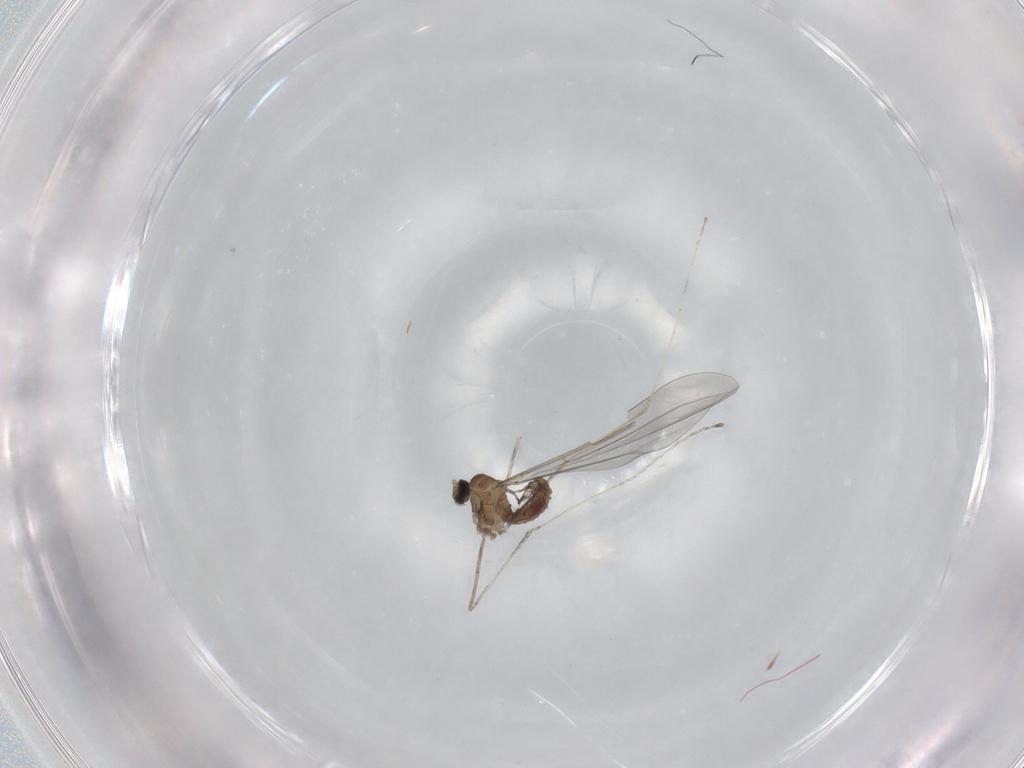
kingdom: Animalia
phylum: Arthropoda
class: Insecta
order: Diptera
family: Cecidomyiidae
